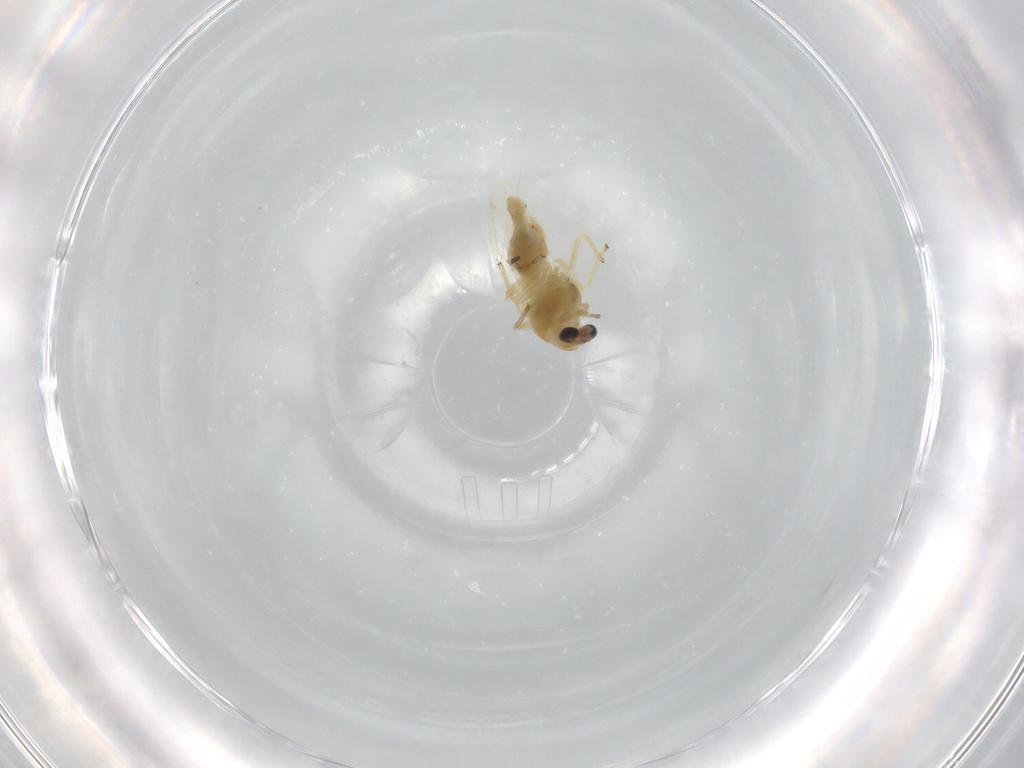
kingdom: Animalia
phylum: Arthropoda
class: Insecta
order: Diptera
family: Chironomidae
